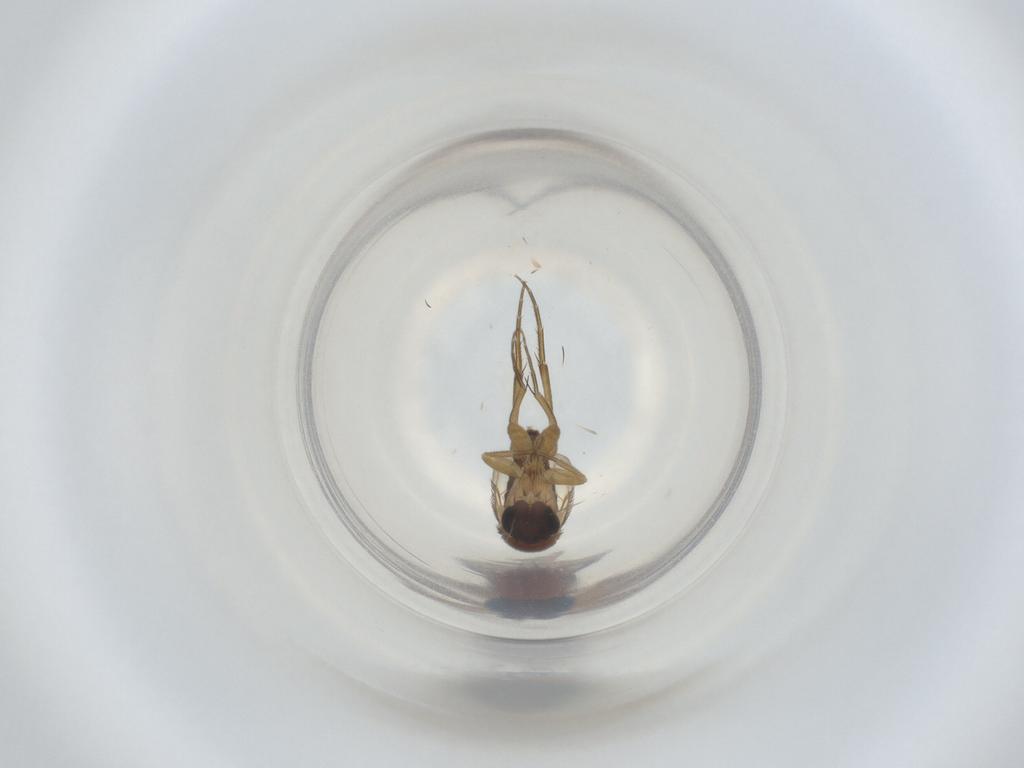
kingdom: Animalia
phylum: Arthropoda
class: Insecta
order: Diptera
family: Phoridae
